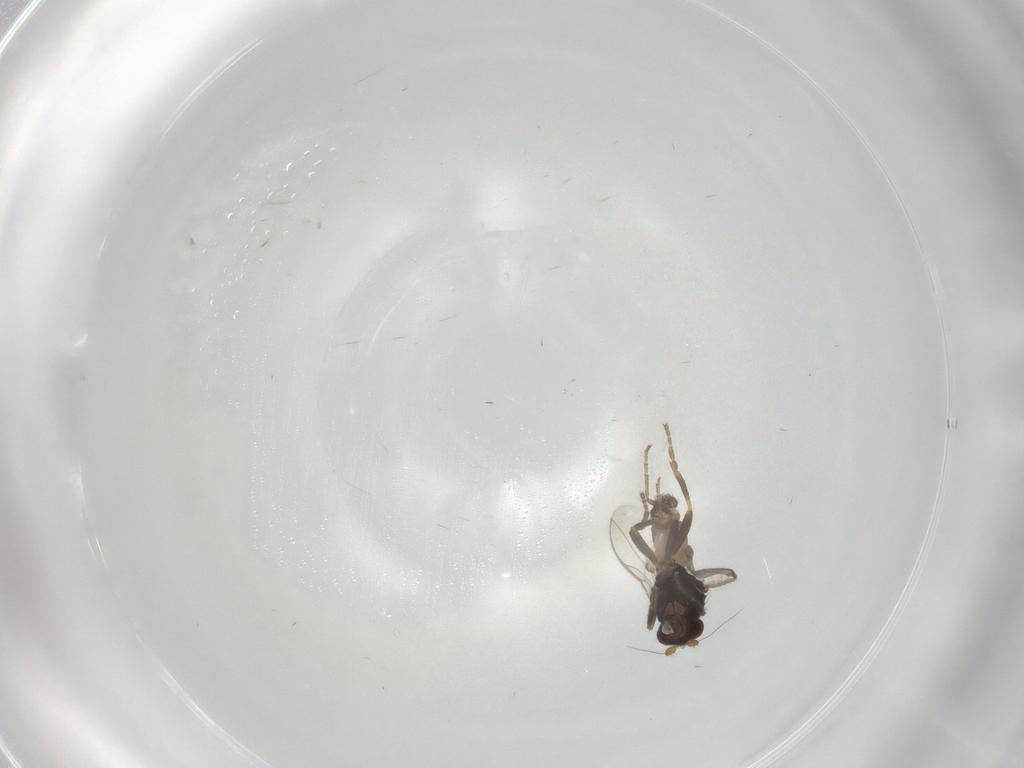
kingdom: Animalia
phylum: Arthropoda
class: Insecta
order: Diptera
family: Sphaeroceridae
